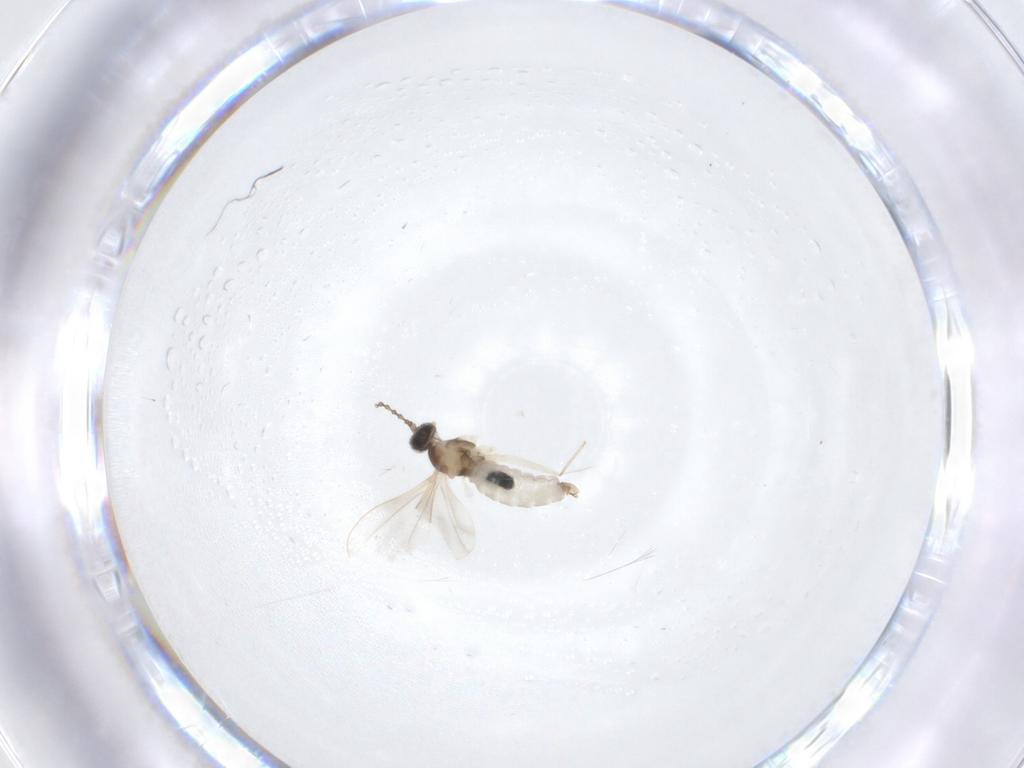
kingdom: Animalia
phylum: Arthropoda
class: Insecta
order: Diptera
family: Cecidomyiidae
